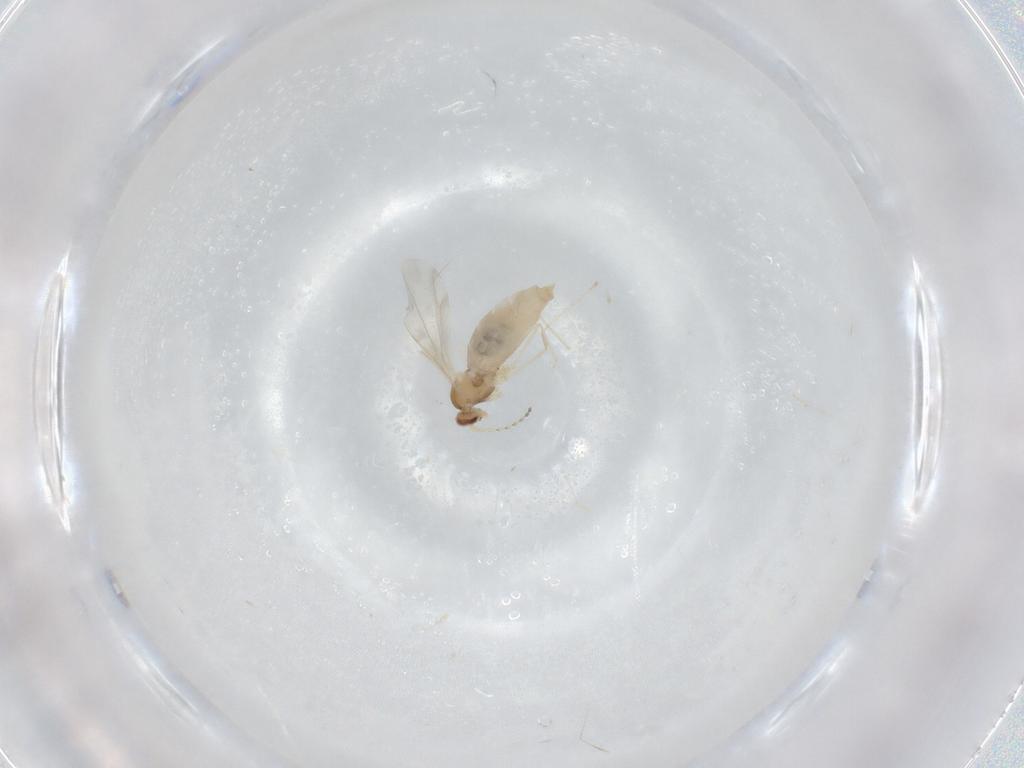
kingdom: Animalia
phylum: Arthropoda
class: Insecta
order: Diptera
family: Cecidomyiidae
